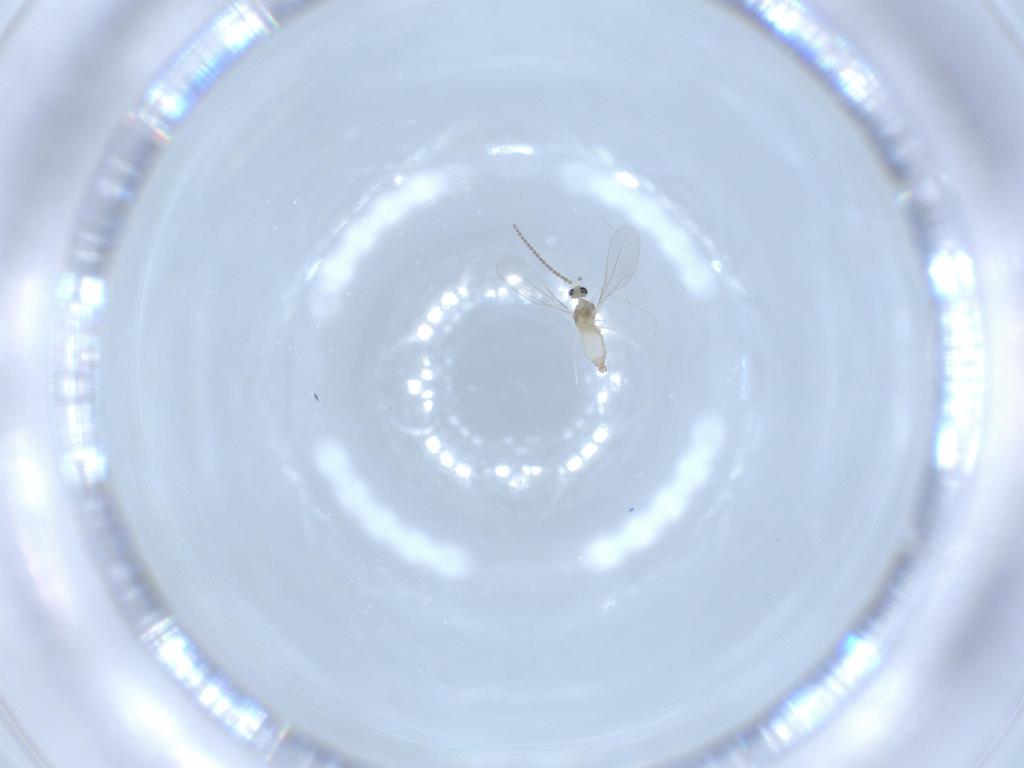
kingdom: Animalia
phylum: Arthropoda
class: Insecta
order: Diptera
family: Cecidomyiidae
